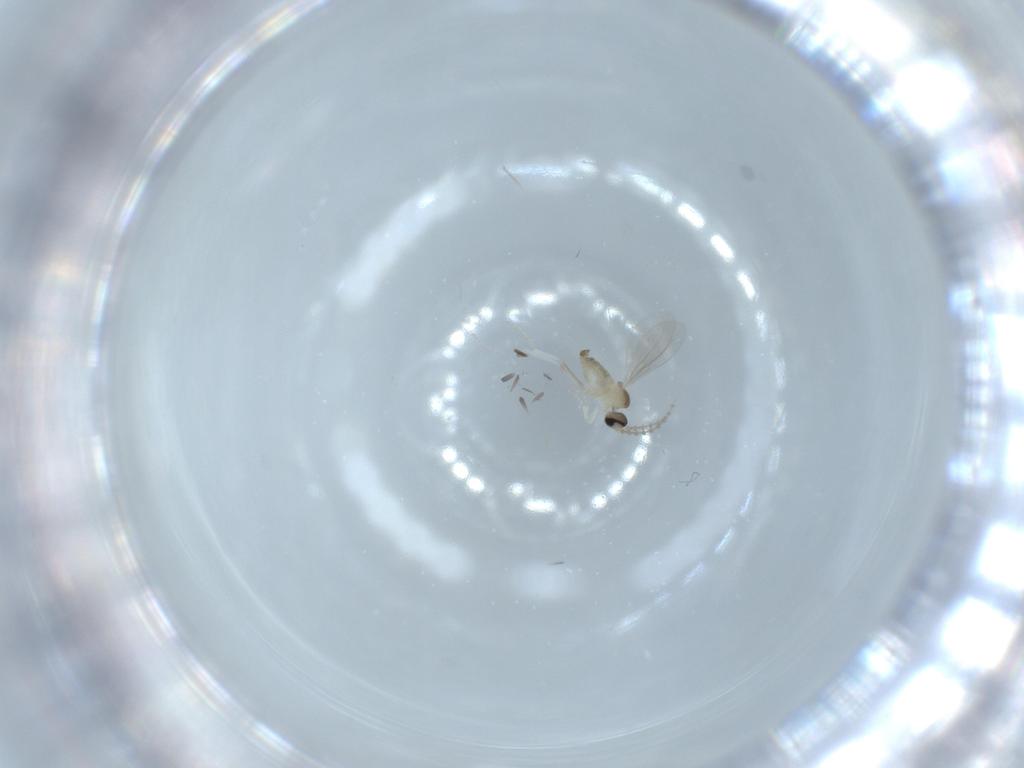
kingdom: Animalia
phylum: Arthropoda
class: Insecta
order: Diptera
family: Cecidomyiidae
